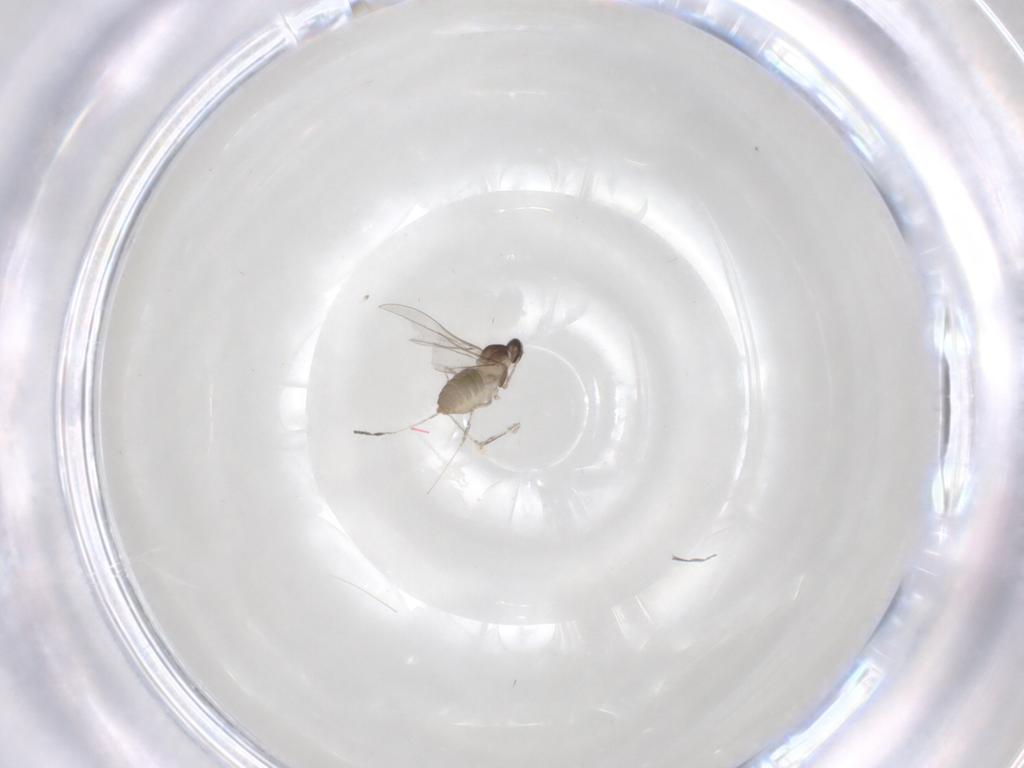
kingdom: Animalia
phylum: Arthropoda
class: Insecta
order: Diptera
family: Cecidomyiidae
